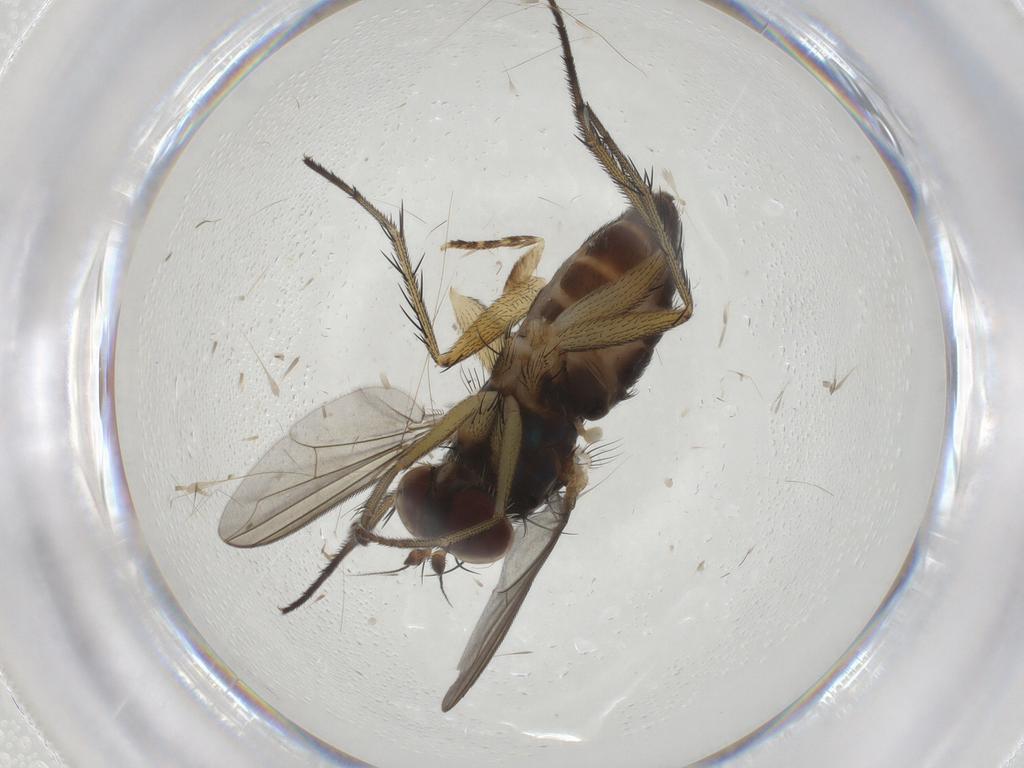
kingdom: Animalia
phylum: Arthropoda
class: Insecta
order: Diptera
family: Dolichopodidae
